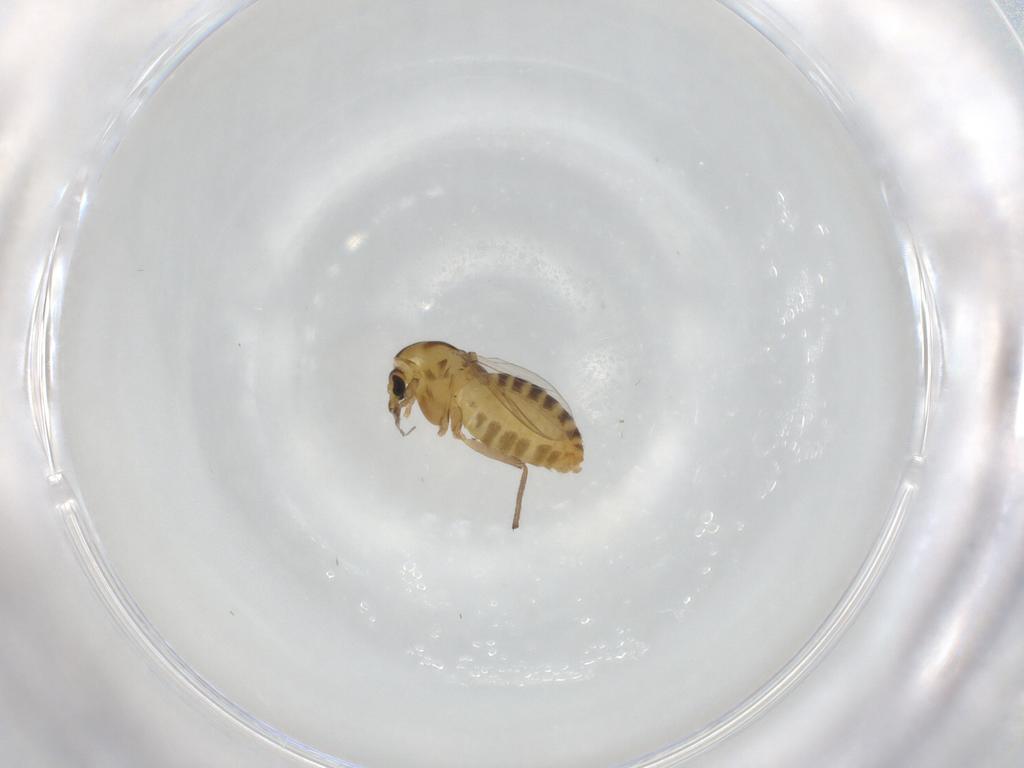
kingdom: Animalia
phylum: Arthropoda
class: Insecta
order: Diptera
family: Chironomidae
